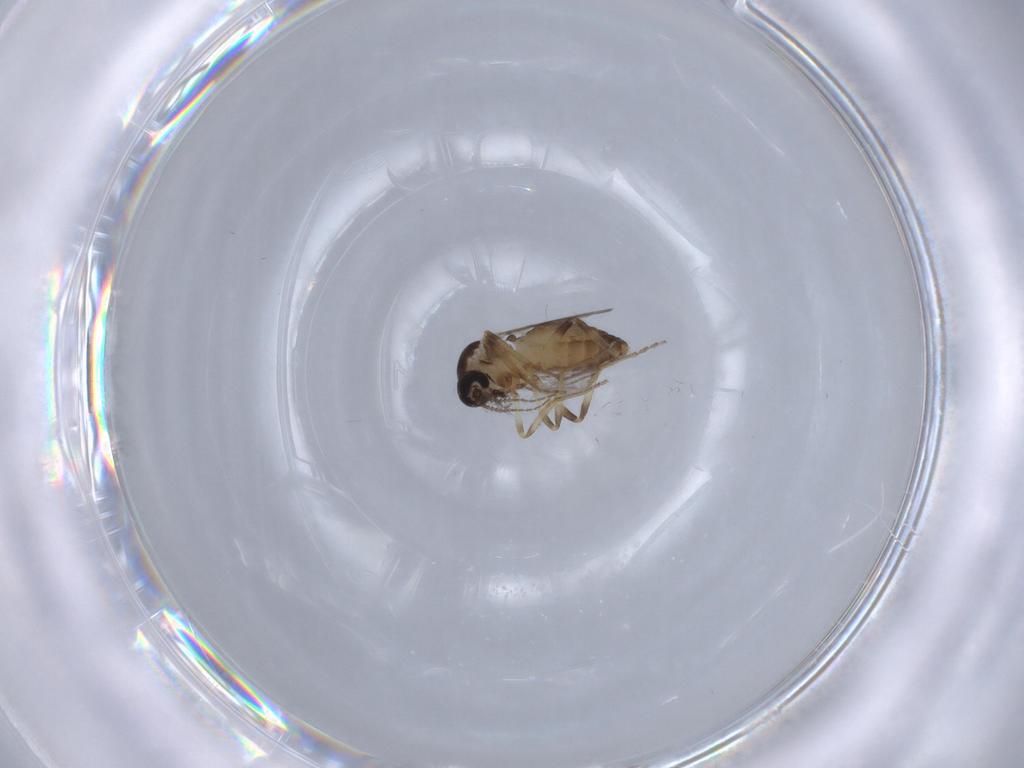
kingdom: Animalia
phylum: Arthropoda
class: Insecta
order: Diptera
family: Ceratopogonidae
